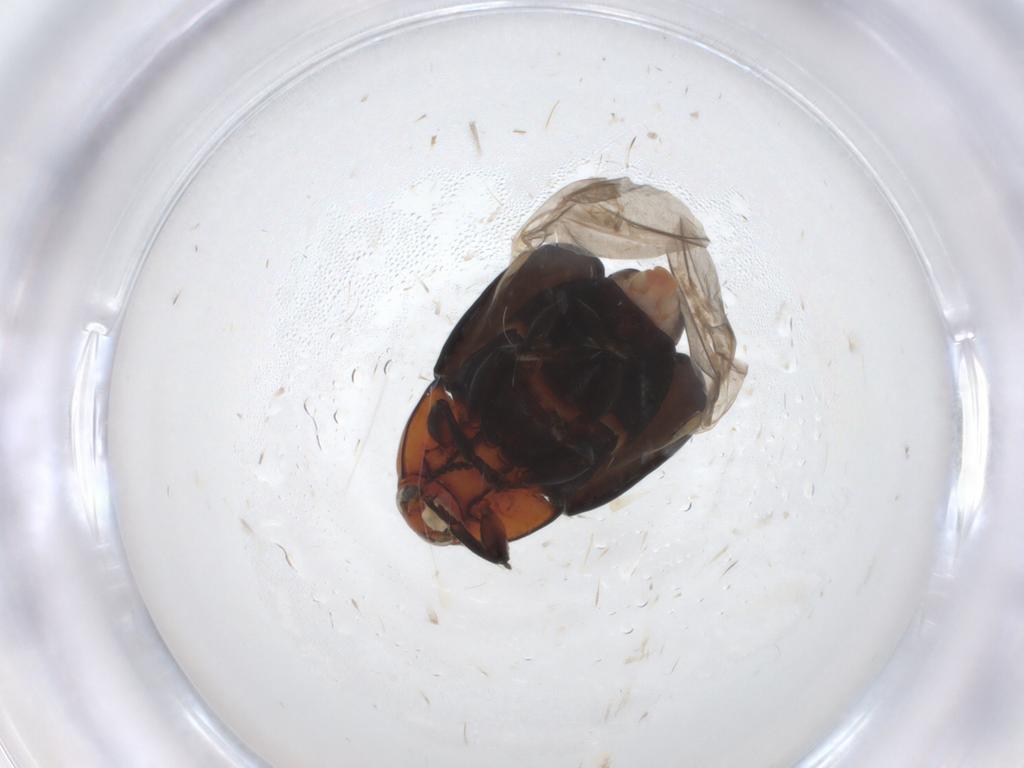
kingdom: Animalia
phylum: Arthropoda
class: Insecta
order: Coleoptera
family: Chrysomelidae
